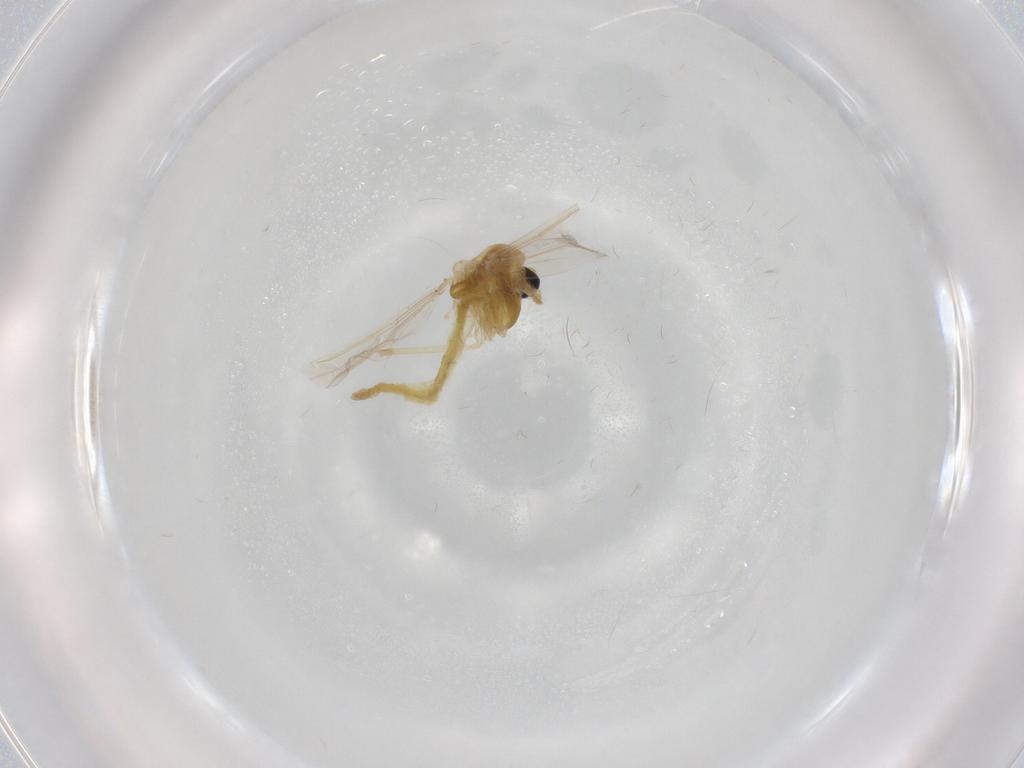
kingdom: Animalia
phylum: Arthropoda
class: Insecta
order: Diptera
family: Chironomidae
